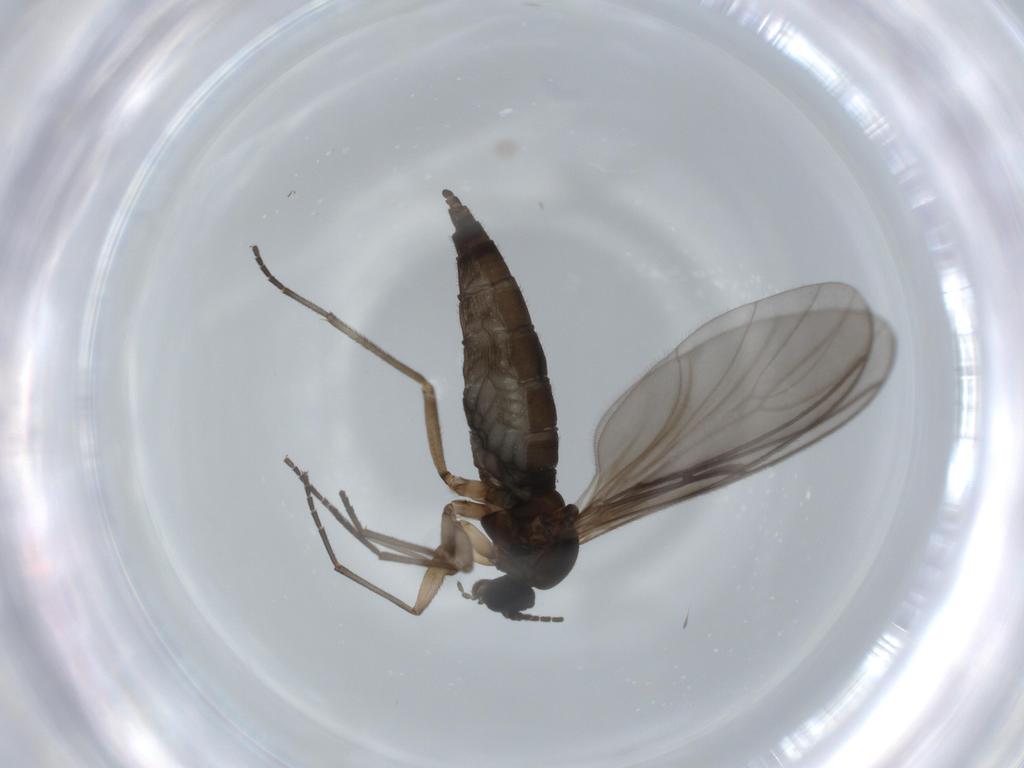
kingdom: Animalia
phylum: Arthropoda
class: Insecta
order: Diptera
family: Sciaridae
